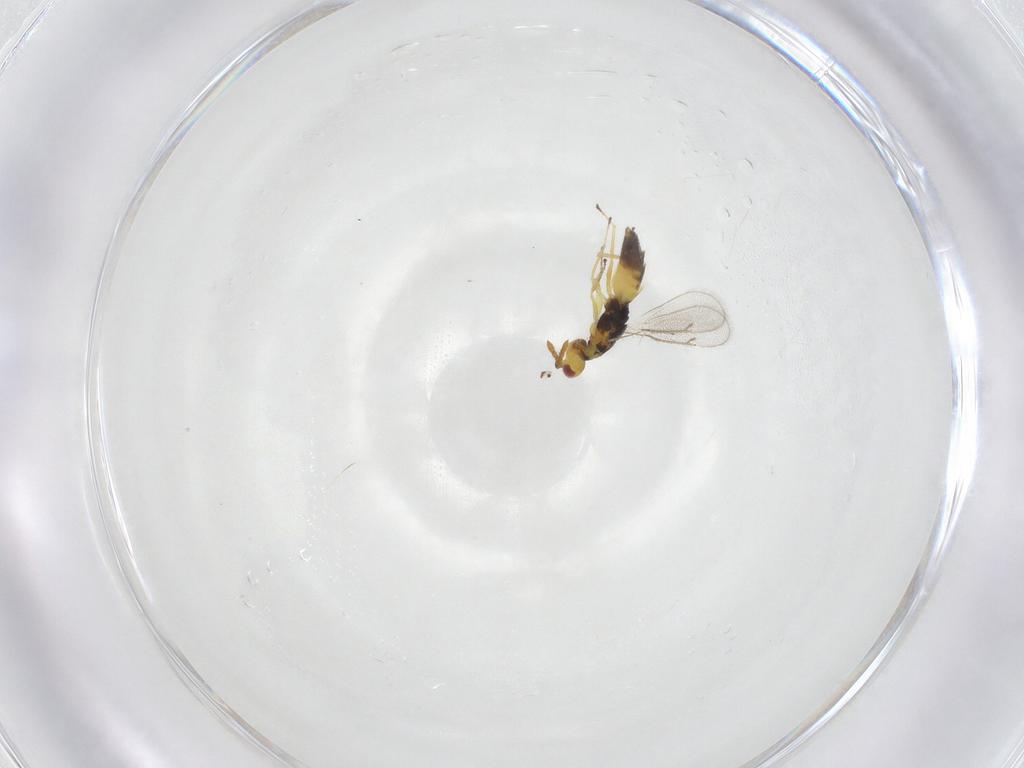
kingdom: Animalia
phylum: Arthropoda
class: Insecta
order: Hymenoptera
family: Eulophidae
